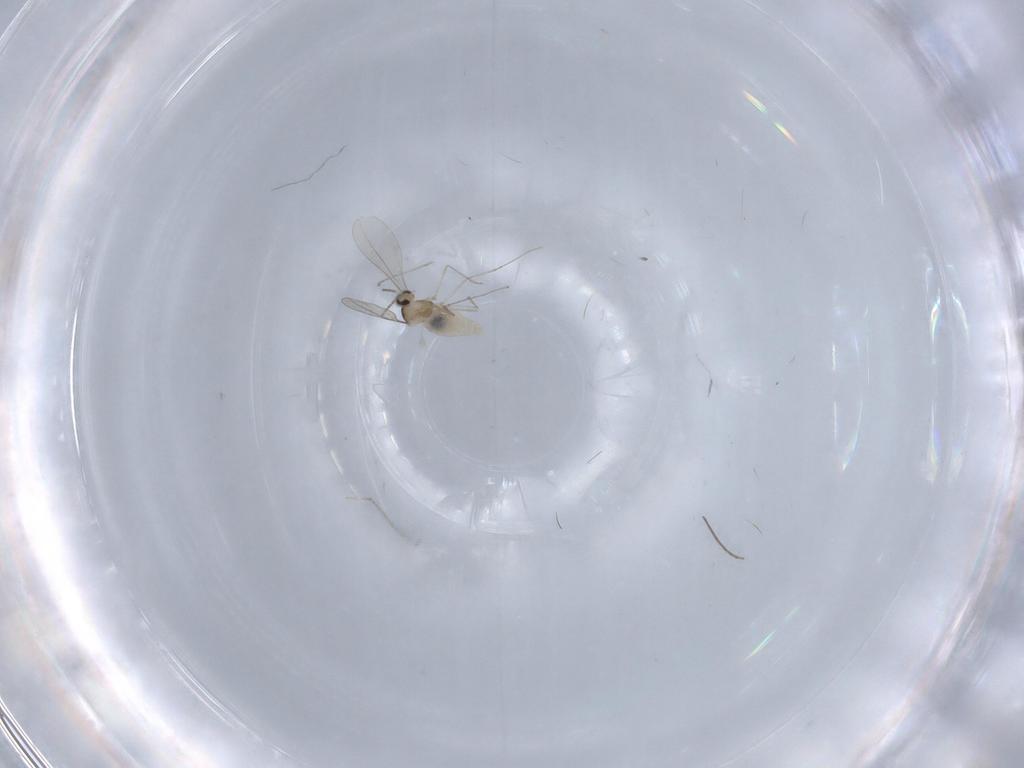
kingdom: Animalia
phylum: Arthropoda
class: Insecta
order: Diptera
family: Cecidomyiidae
